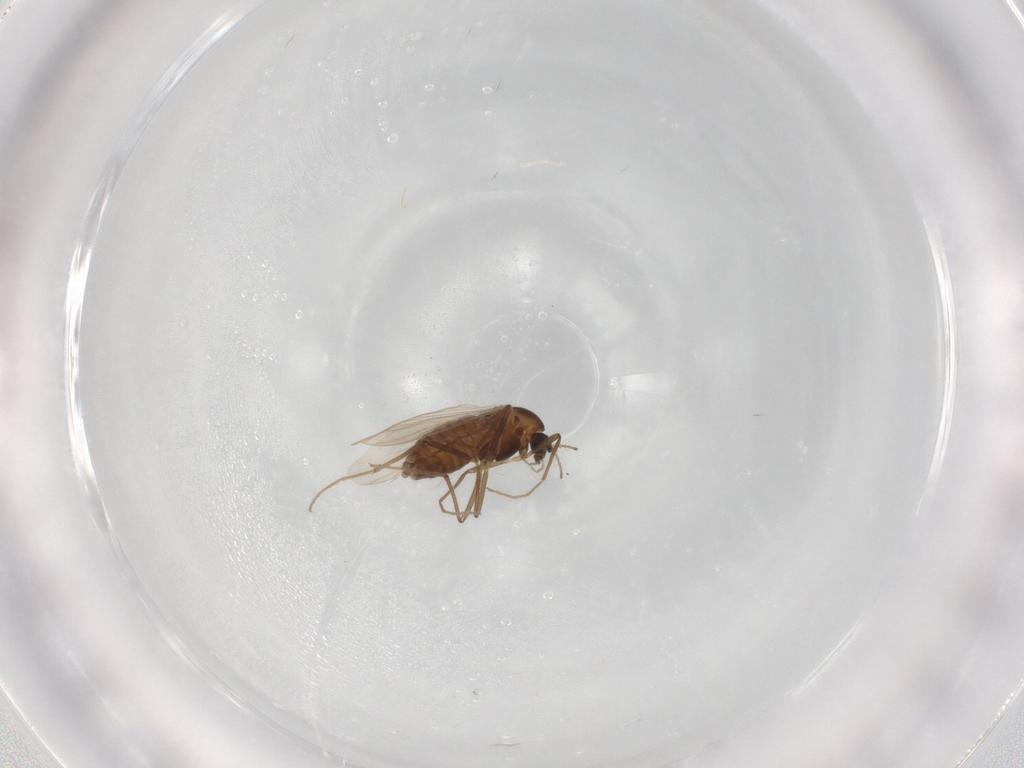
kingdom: Animalia
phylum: Arthropoda
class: Insecta
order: Diptera
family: Chironomidae
